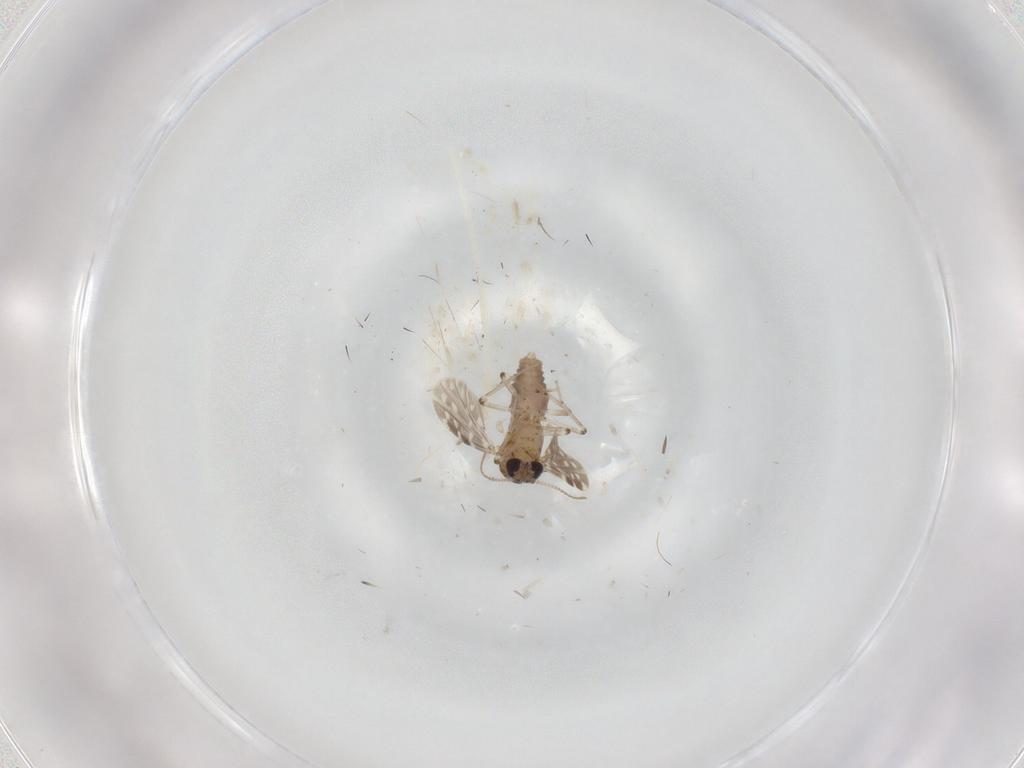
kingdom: Animalia
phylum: Arthropoda
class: Insecta
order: Diptera
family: Ceratopogonidae
